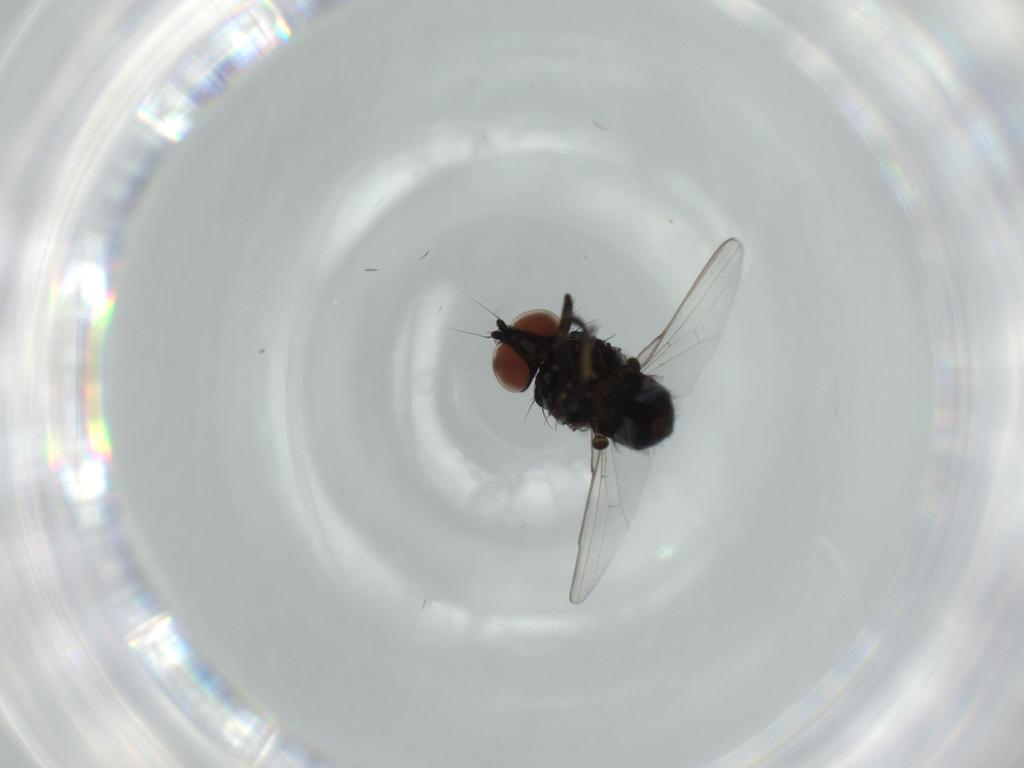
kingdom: Animalia
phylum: Arthropoda
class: Insecta
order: Diptera
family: Milichiidae
